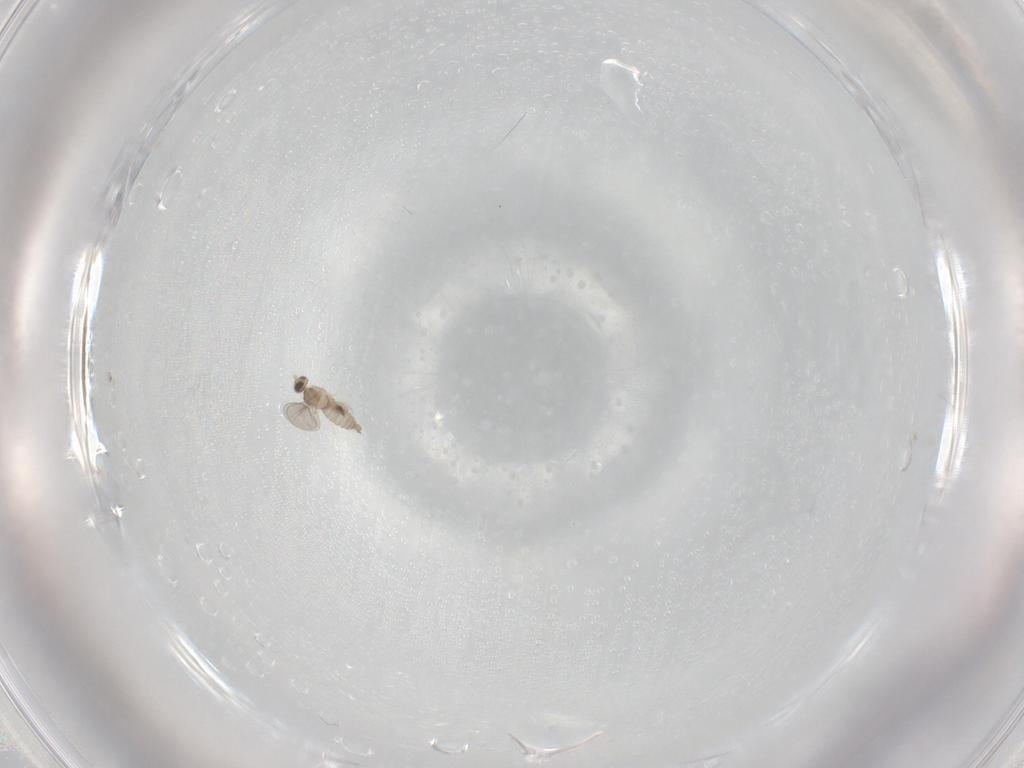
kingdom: Animalia
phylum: Arthropoda
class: Insecta
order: Diptera
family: Cecidomyiidae
